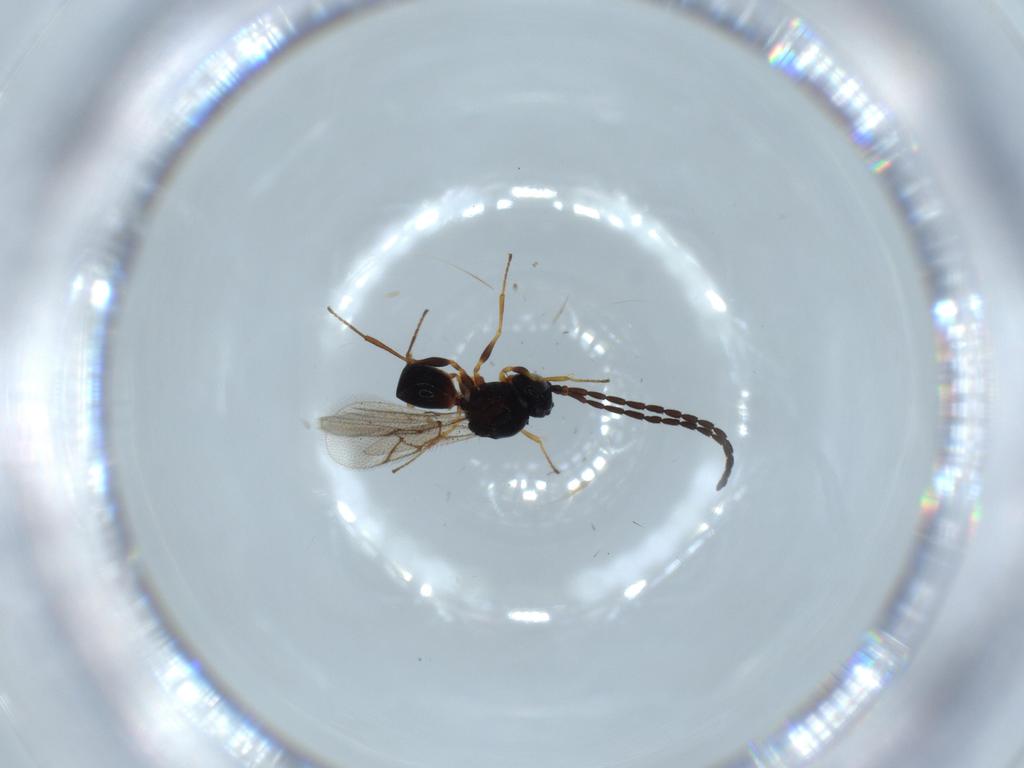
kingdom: Animalia
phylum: Arthropoda
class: Insecta
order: Hymenoptera
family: Figitidae
